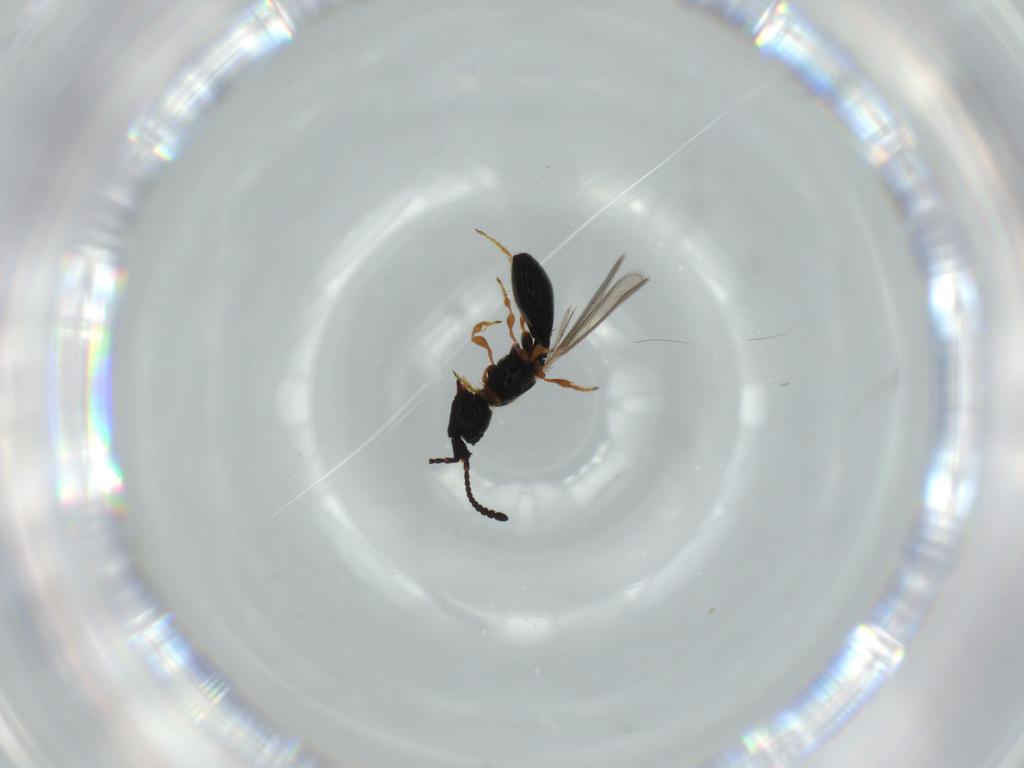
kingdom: Animalia
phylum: Arthropoda
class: Insecta
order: Hymenoptera
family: Diapriidae
